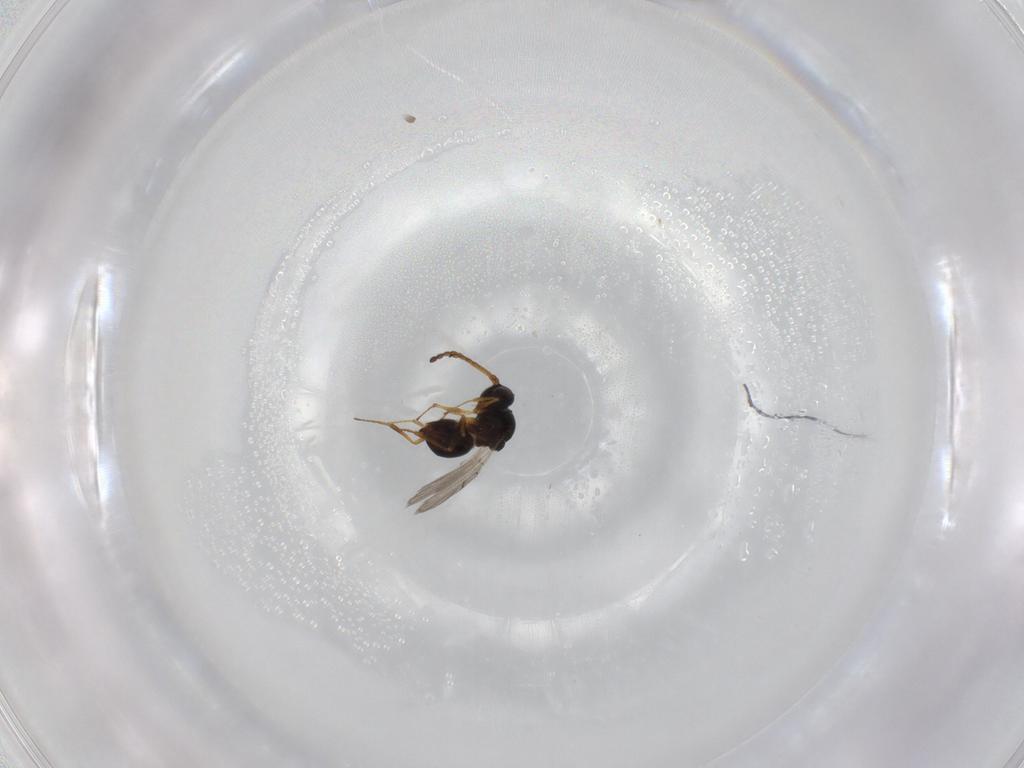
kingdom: Animalia
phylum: Arthropoda
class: Insecta
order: Hymenoptera
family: Figitidae
